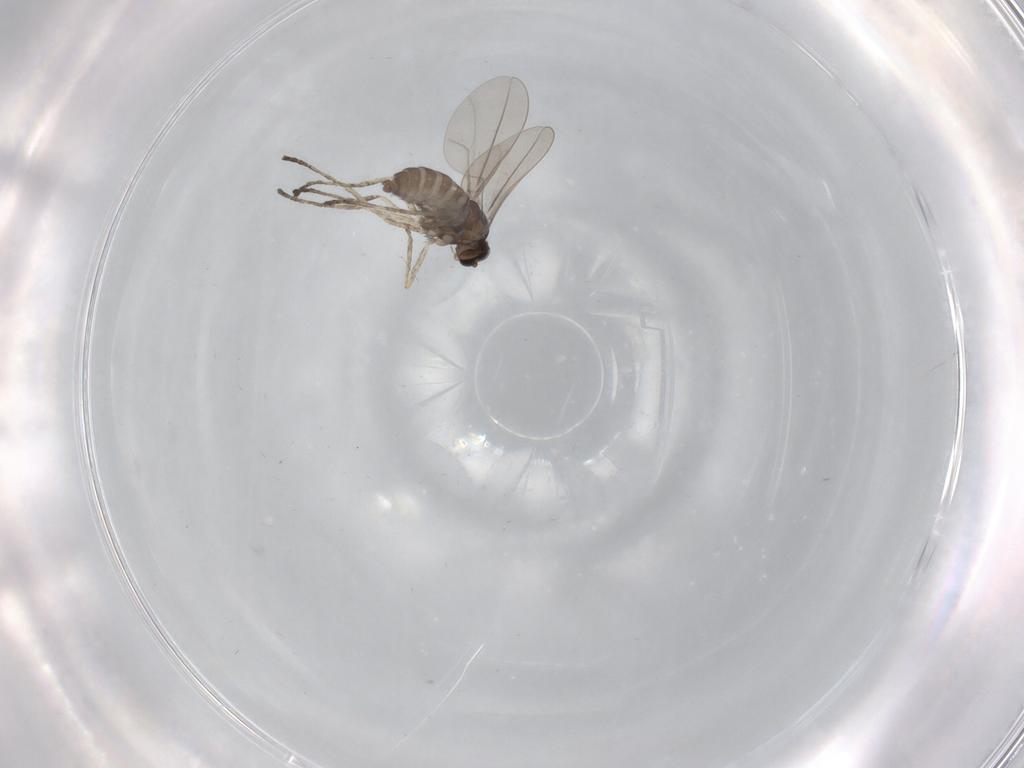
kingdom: Animalia
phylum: Arthropoda
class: Insecta
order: Diptera
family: Cecidomyiidae
